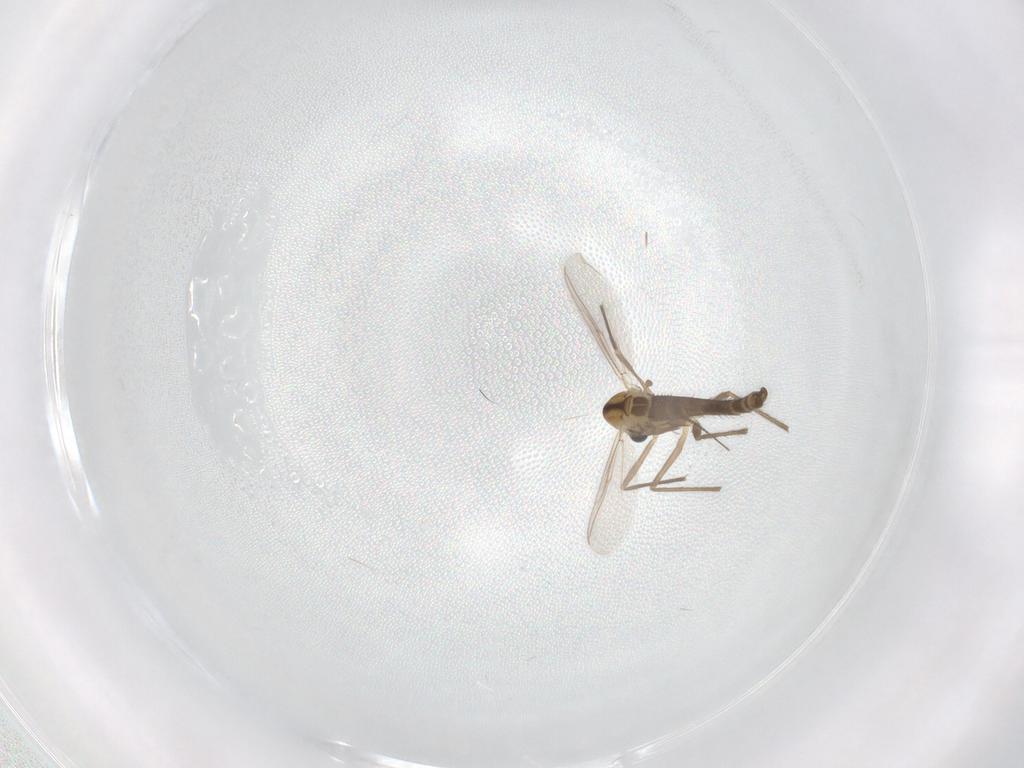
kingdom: Animalia
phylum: Arthropoda
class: Insecta
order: Diptera
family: Chironomidae
